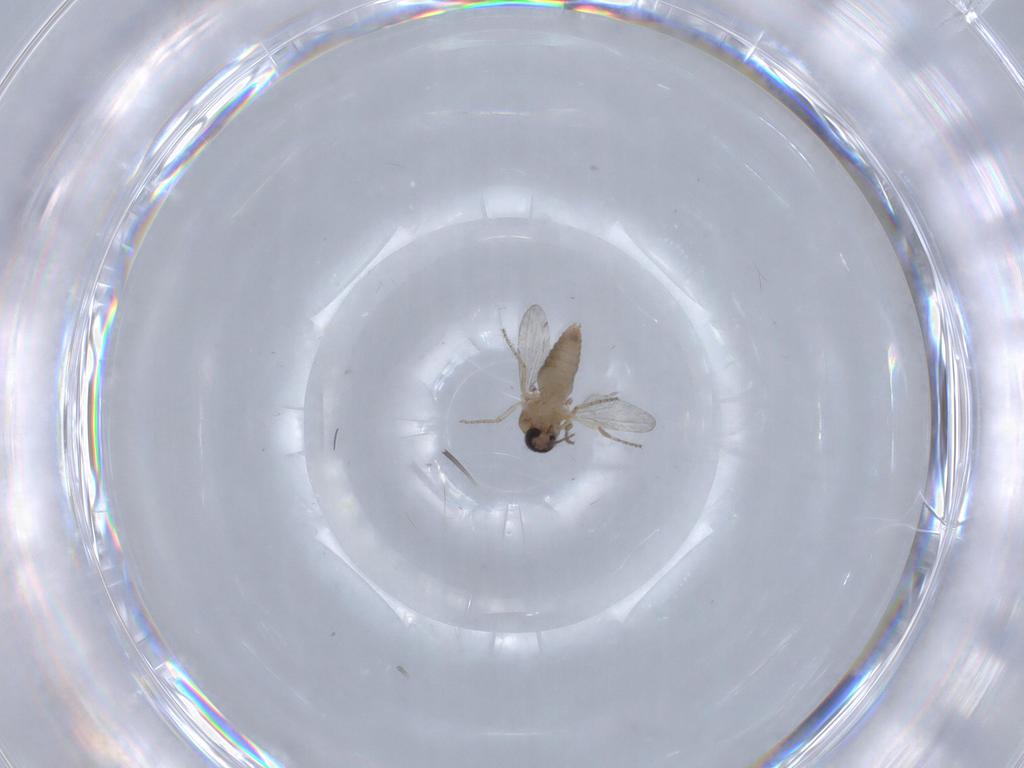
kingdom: Animalia
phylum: Arthropoda
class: Insecta
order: Diptera
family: Ceratopogonidae
